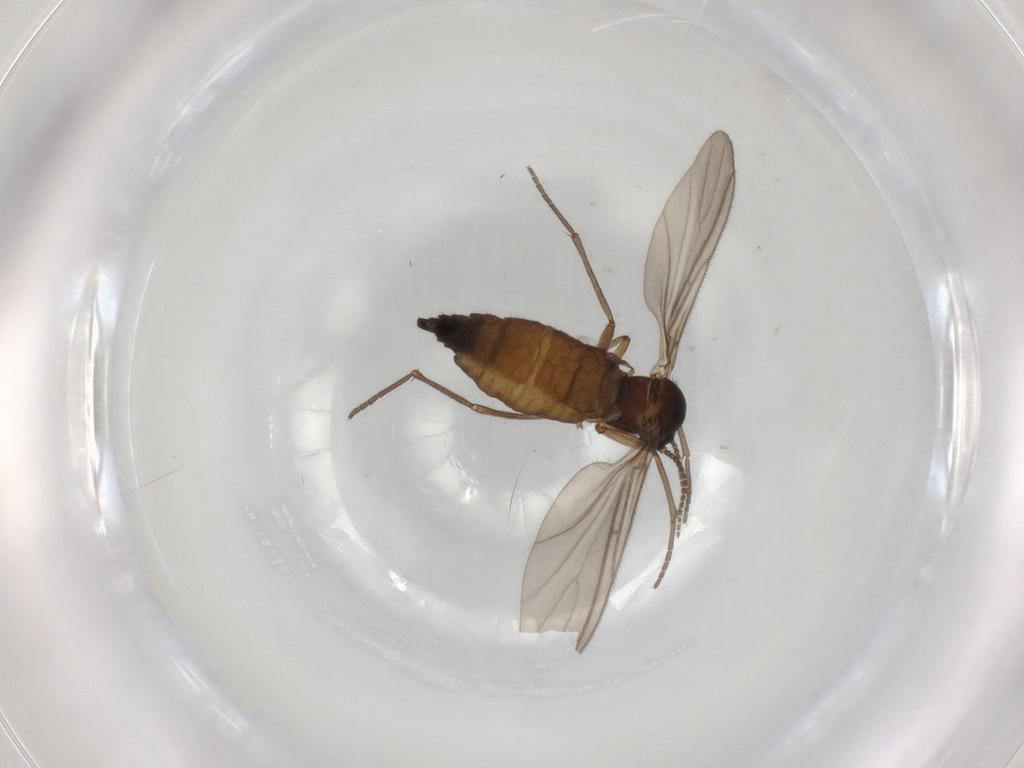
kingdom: Animalia
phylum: Arthropoda
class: Insecta
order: Diptera
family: Sciaridae
